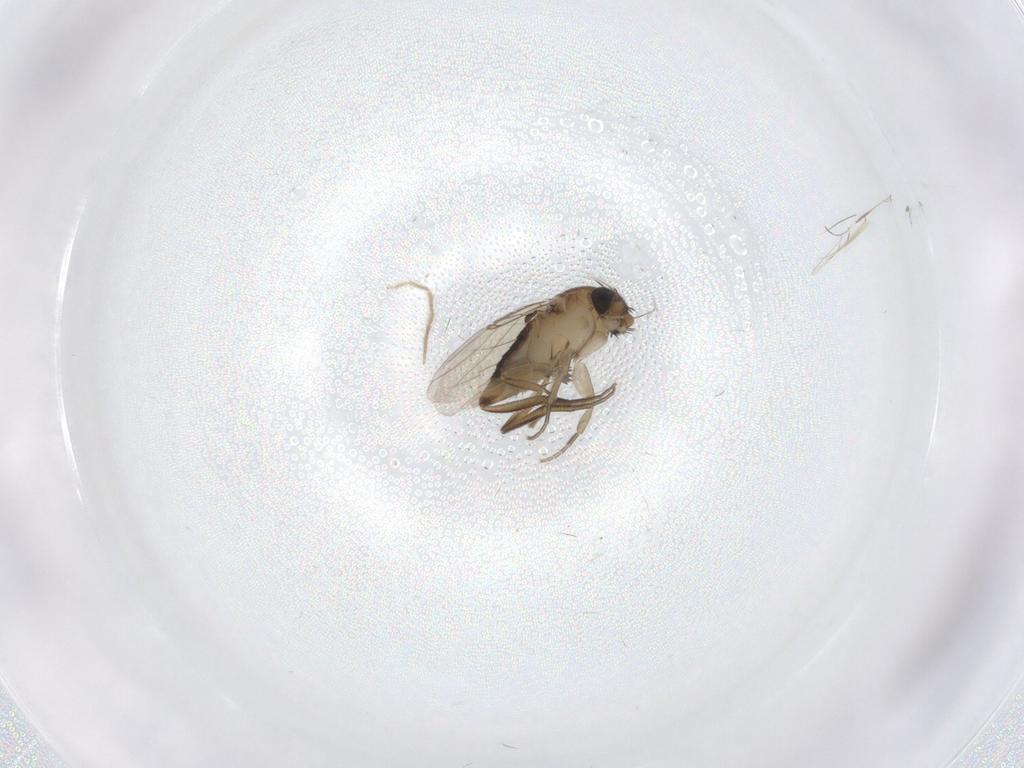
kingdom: Animalia
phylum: Arthropoda
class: Insecta
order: Diptera
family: Phoridae
